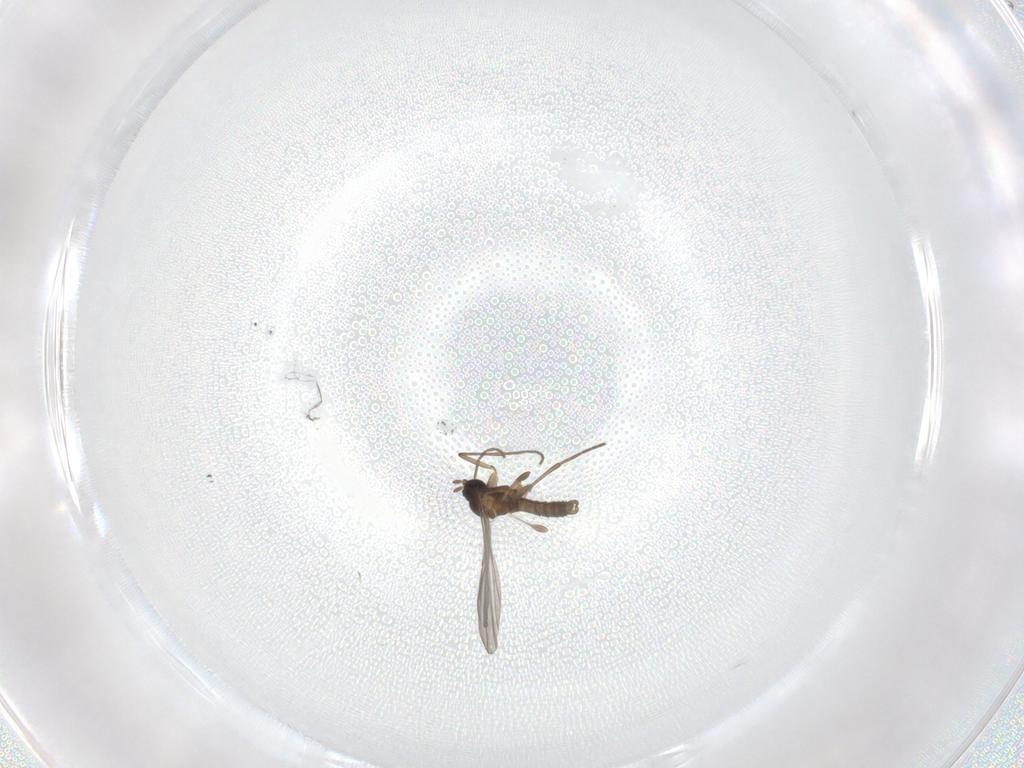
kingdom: Animalia
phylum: Arthropoda
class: Insecta
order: Diptera
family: Sciaridae
